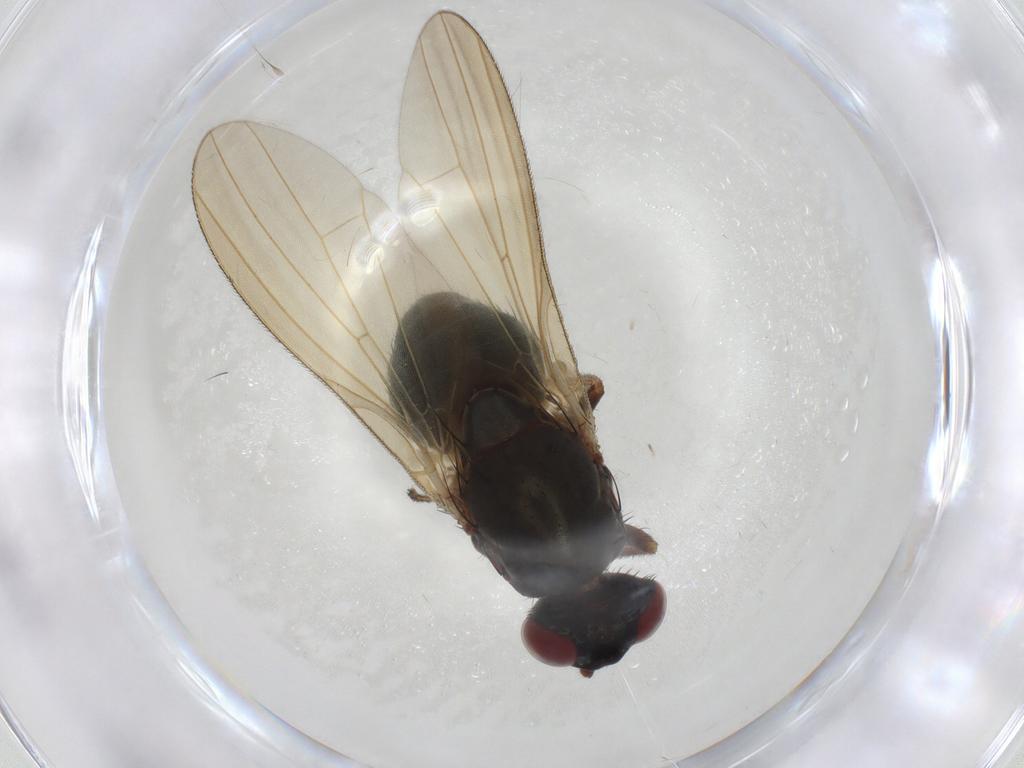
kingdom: Animalia
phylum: Arthropoda
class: Insecta
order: Diptera
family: Lauxaniidae
